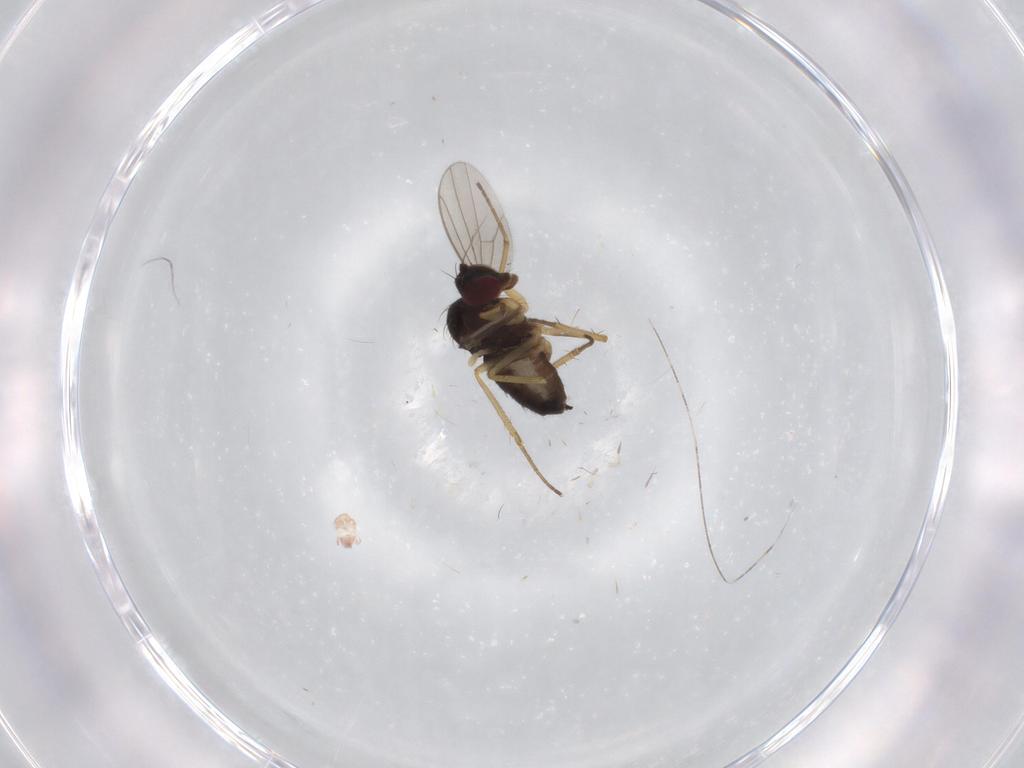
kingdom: Animalia
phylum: Arthropoda
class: Insecta
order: Diptera
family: Dolichopodidae
